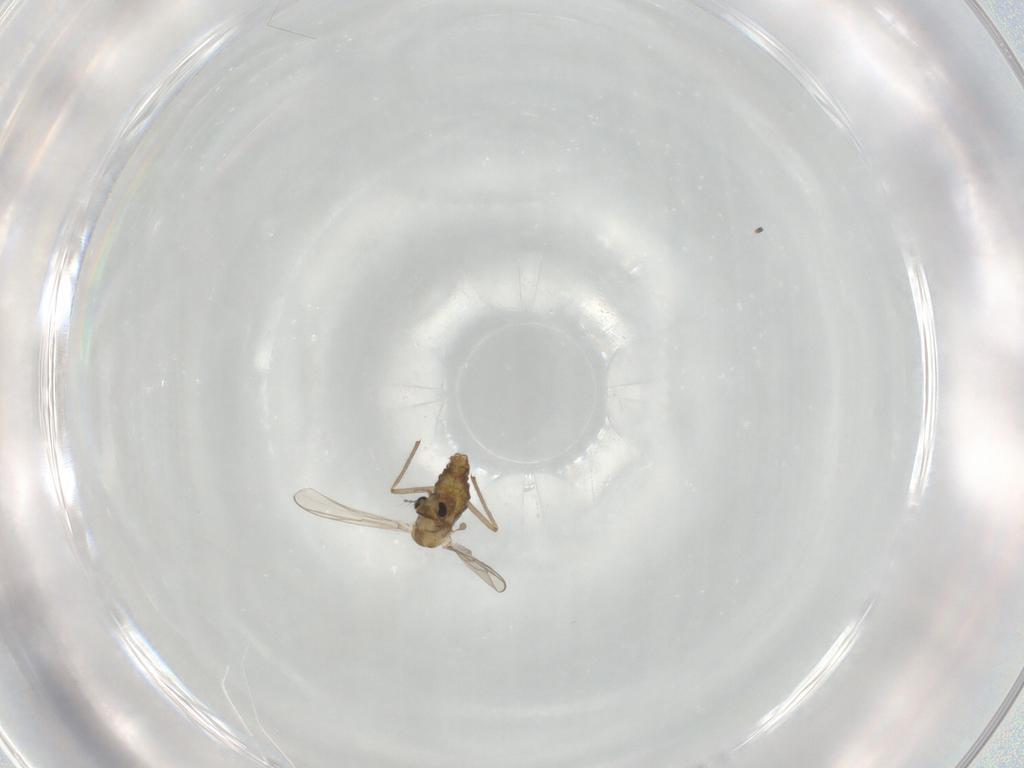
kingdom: Animalia
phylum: Arthropoda
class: Insecta
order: Diptera
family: Chironomidae
